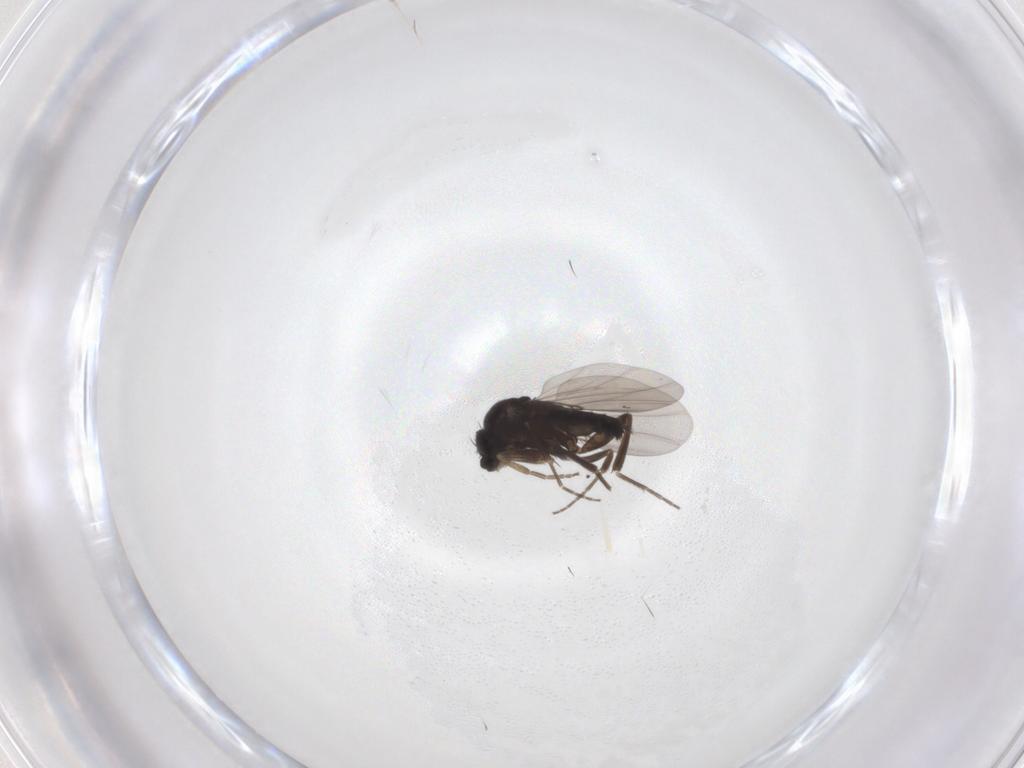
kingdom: Animalia
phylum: Arthropoda
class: Insecta
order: Diptera
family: Phoridae
